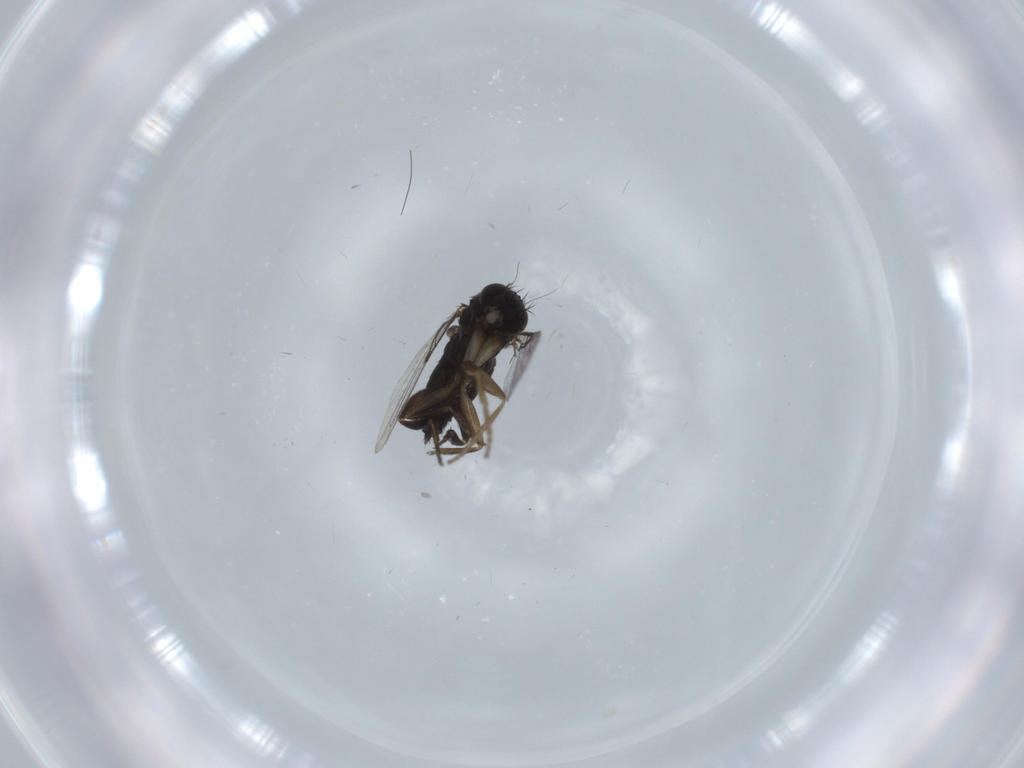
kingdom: Animalia
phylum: Arthropoda
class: Insecta
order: Diptera
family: Phoridae
